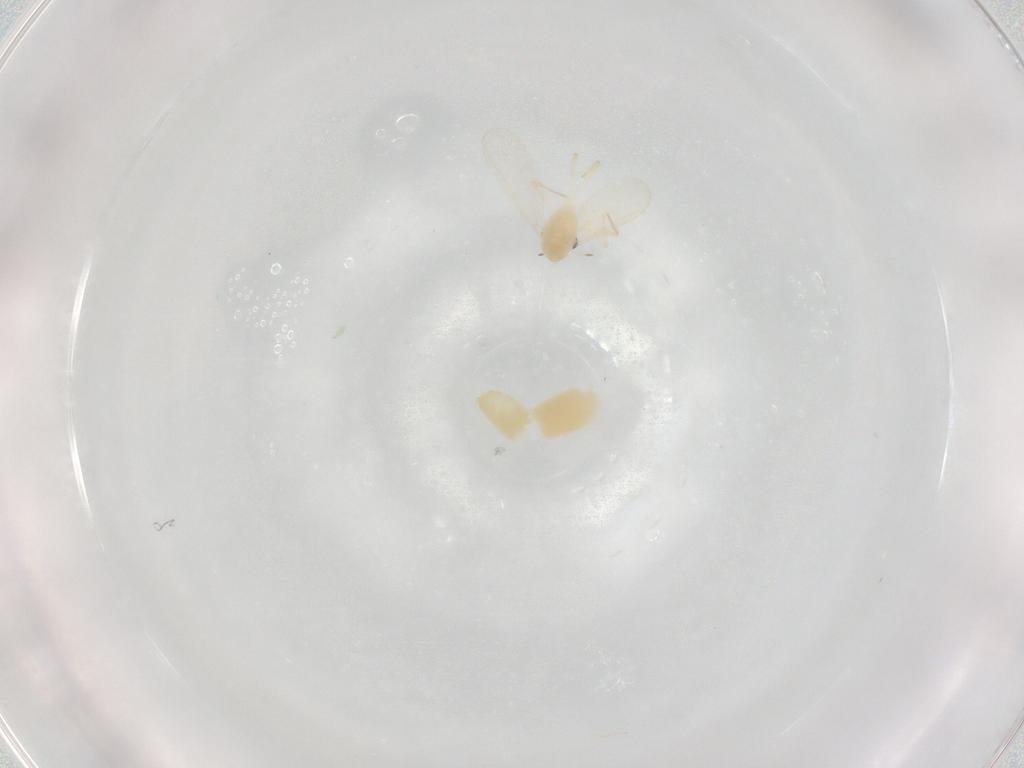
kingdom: Animalia
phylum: Arthropoda
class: Insecta
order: Diptera
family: Chironomidae
